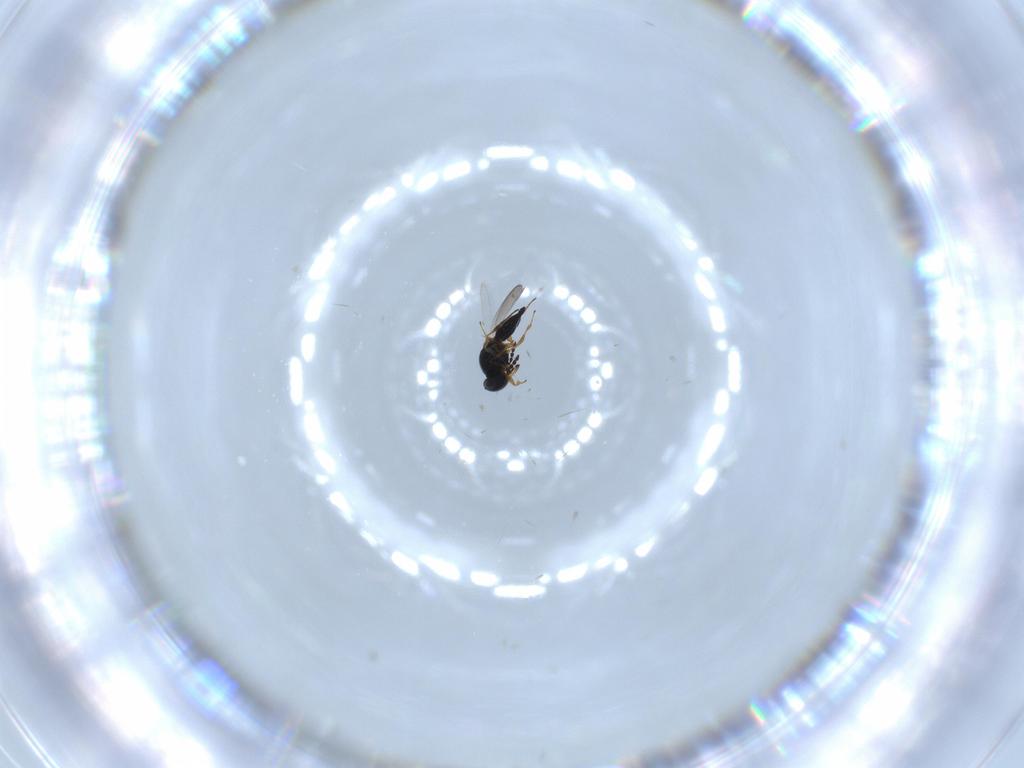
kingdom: Animalia
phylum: Arthropoda
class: Insecta
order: Hymenoptera
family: Platygastridae
